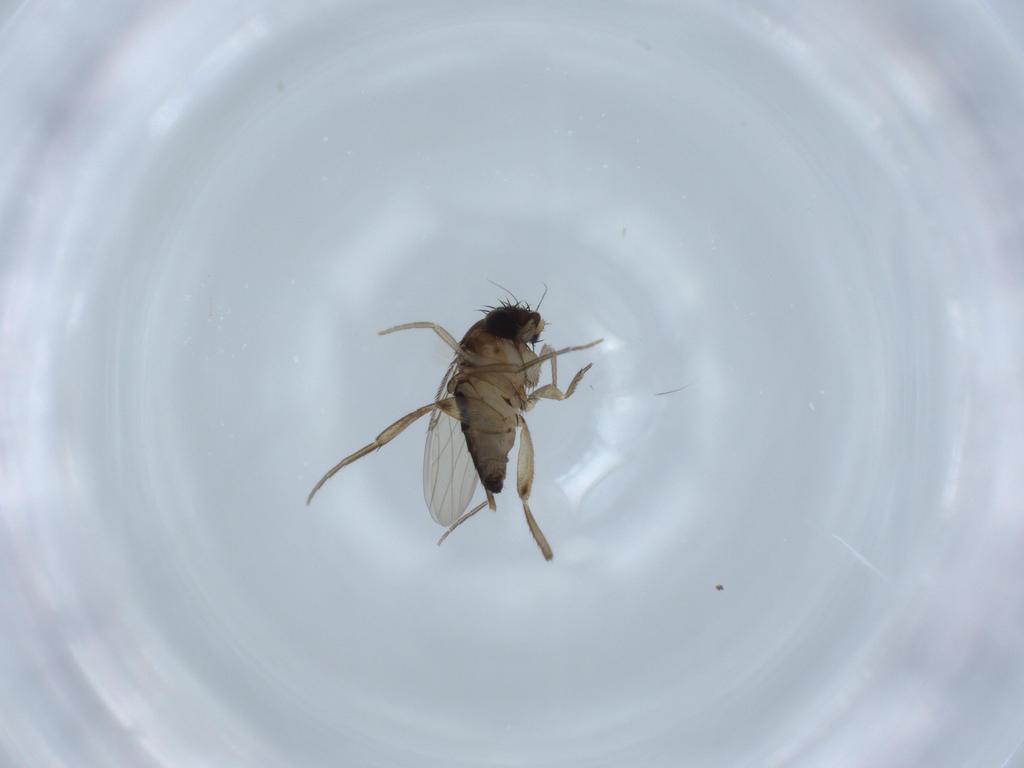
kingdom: Animalia
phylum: Arthropoda
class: Insecta
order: Diptera
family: Phoridae
